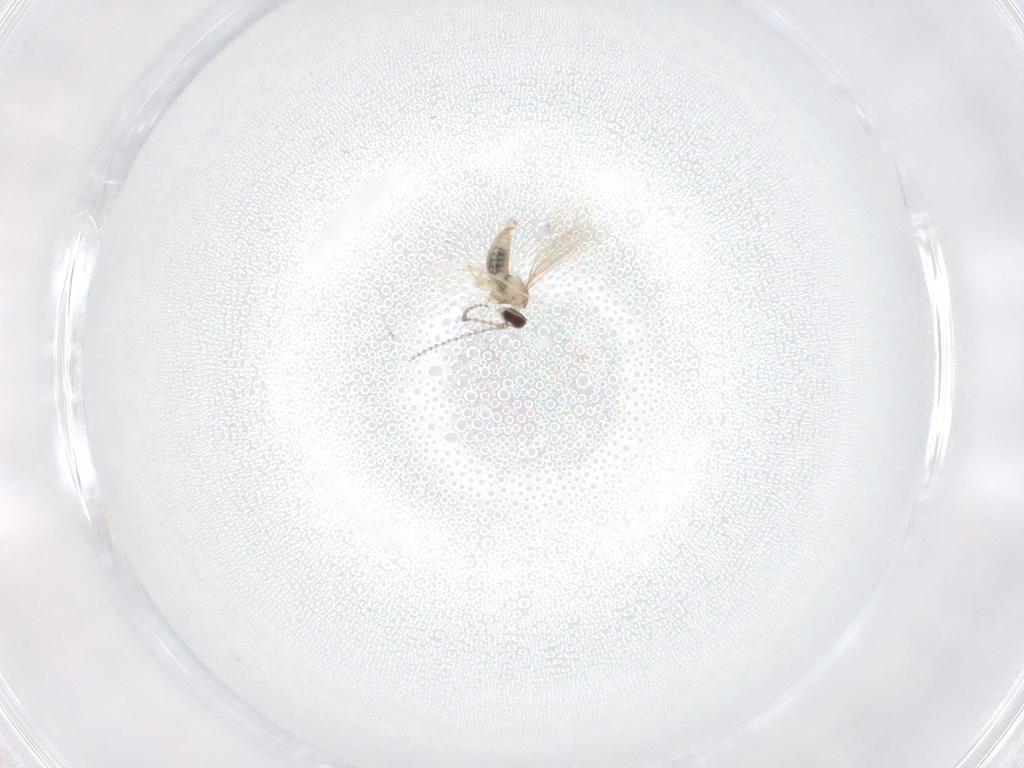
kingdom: Animalia
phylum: Arthropoda
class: Insecta
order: Diptera
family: Cecidomyiidae
